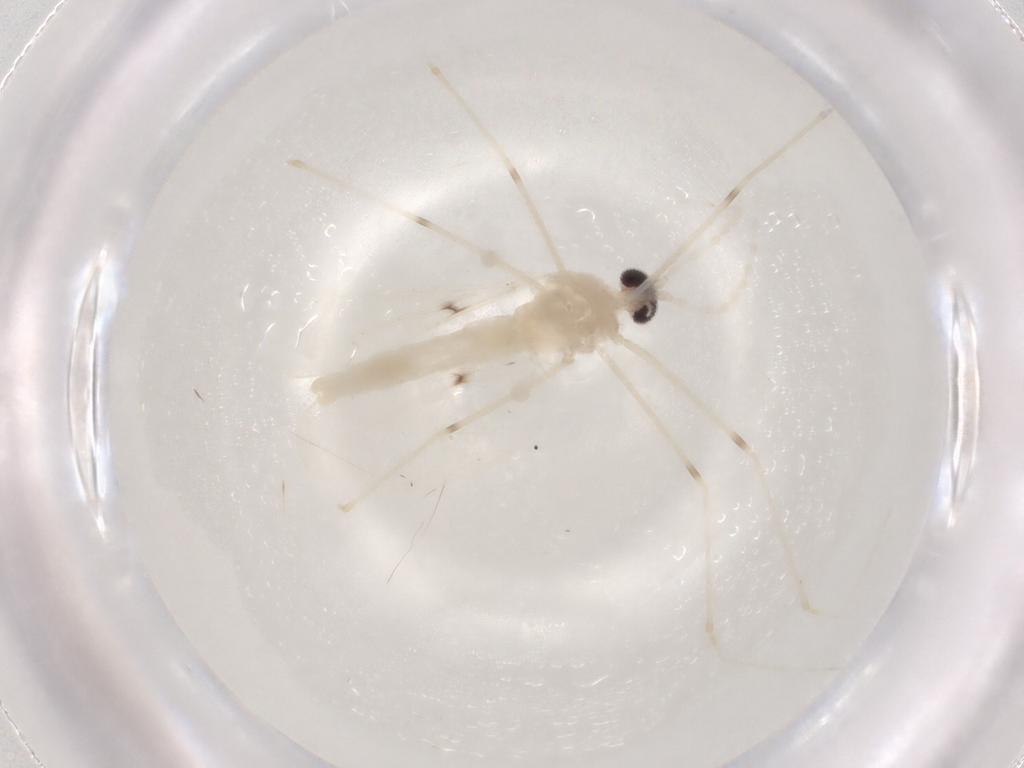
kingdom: Animalia
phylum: Arthropoda
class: Insecta
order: Diptera
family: Cecidomyiidae
